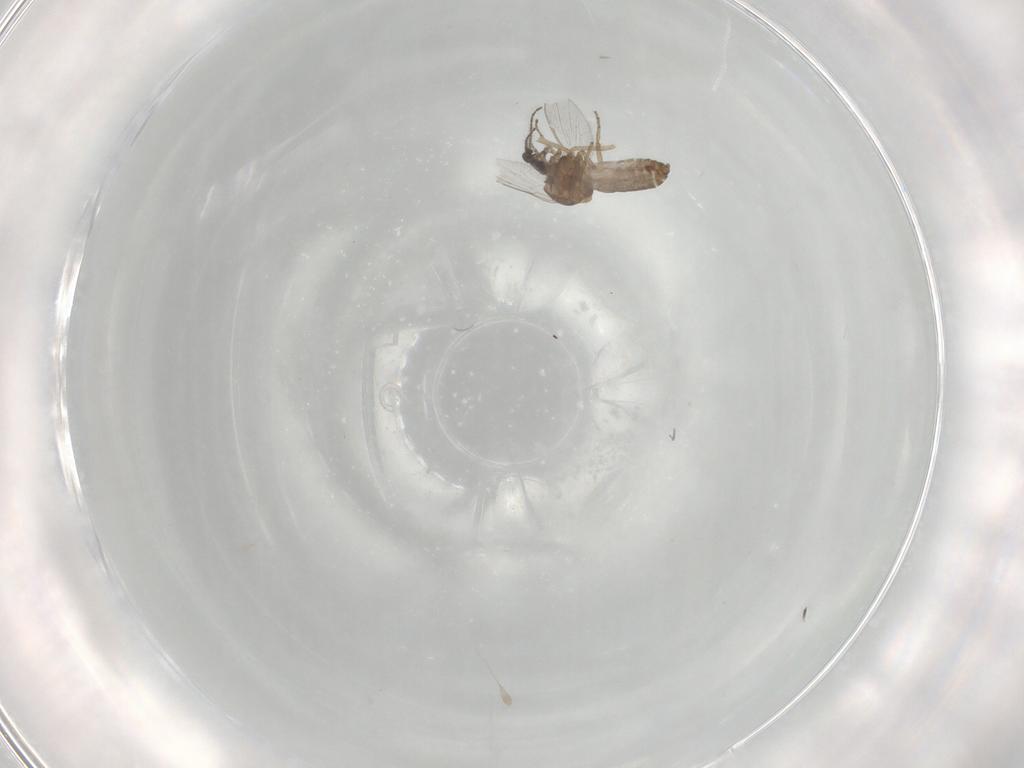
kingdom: Animalia
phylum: Arthropoda
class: Insecta
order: Diptera
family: Ceratopogonidae
